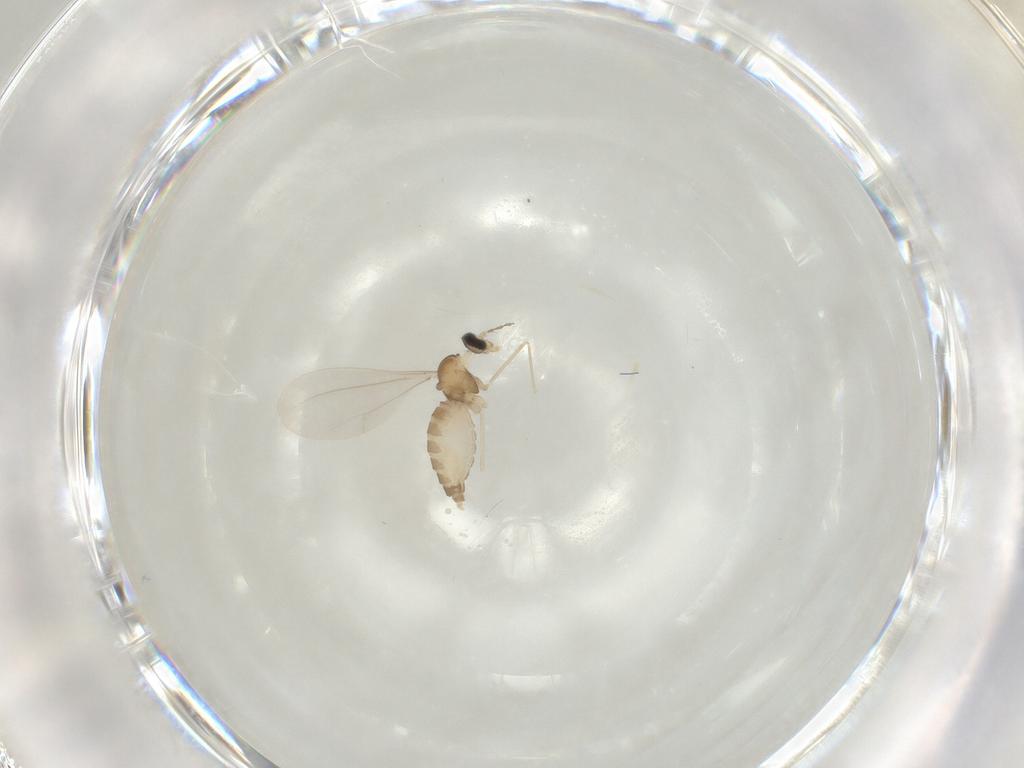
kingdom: Animalia
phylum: Arthropoda
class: Insecta
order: Diptera
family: Cecidomyiidae
